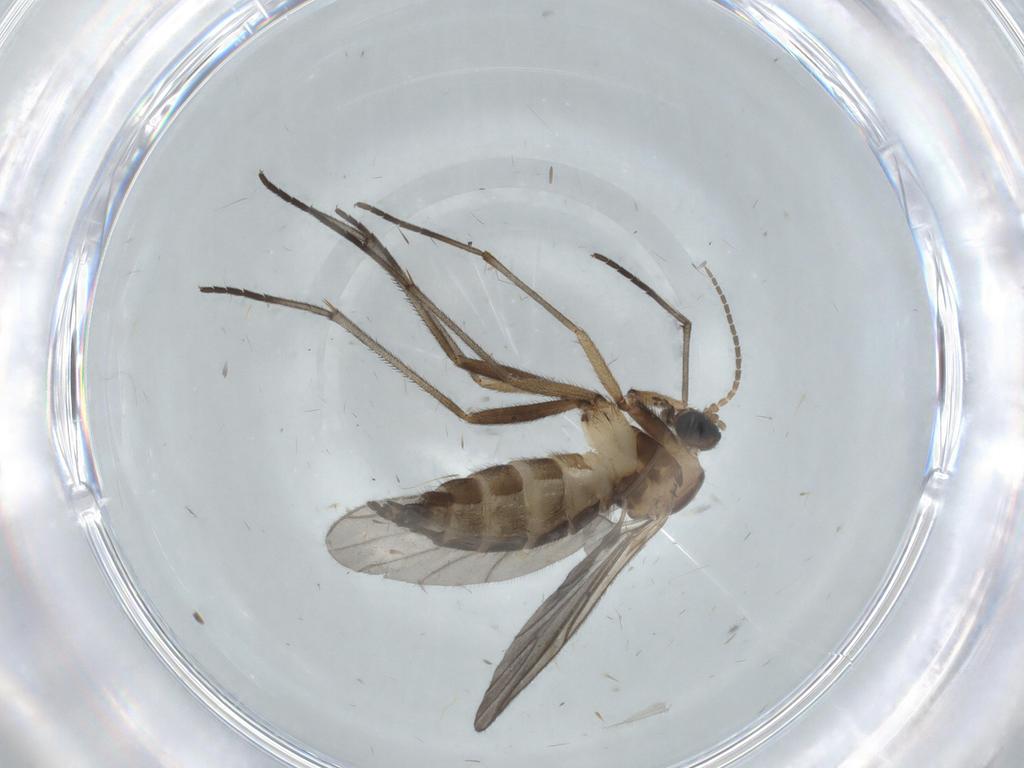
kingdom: Animalia
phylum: Arthropoda
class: Insecta
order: Diptera
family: Sciaridae
